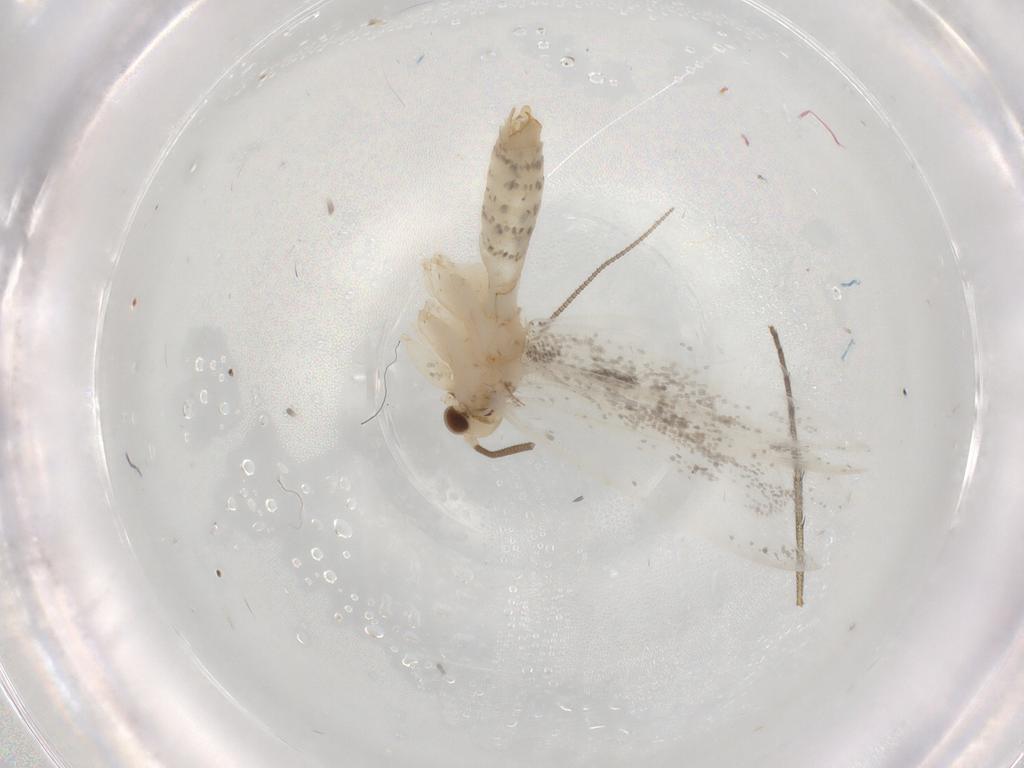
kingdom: Animalia
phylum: Arthropoda
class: Insecta
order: Lepidoptera
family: Nepticulidae
